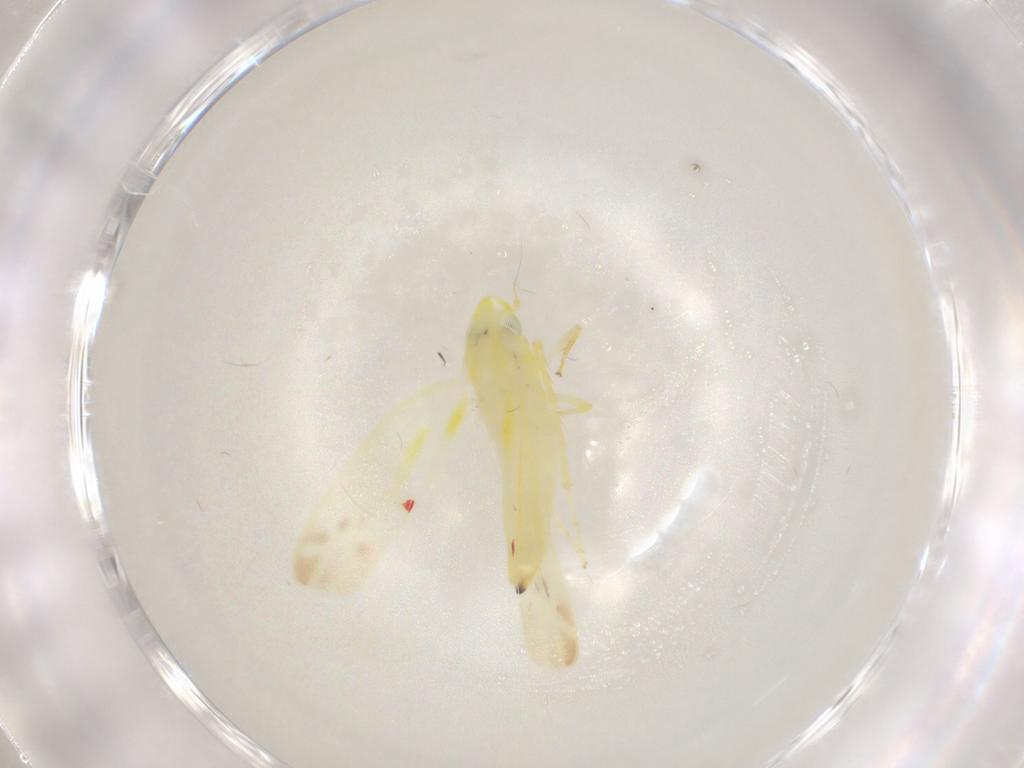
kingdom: Animalia
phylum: Arthropoda
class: Insecta
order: Hemiptera
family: Cicadellidae
